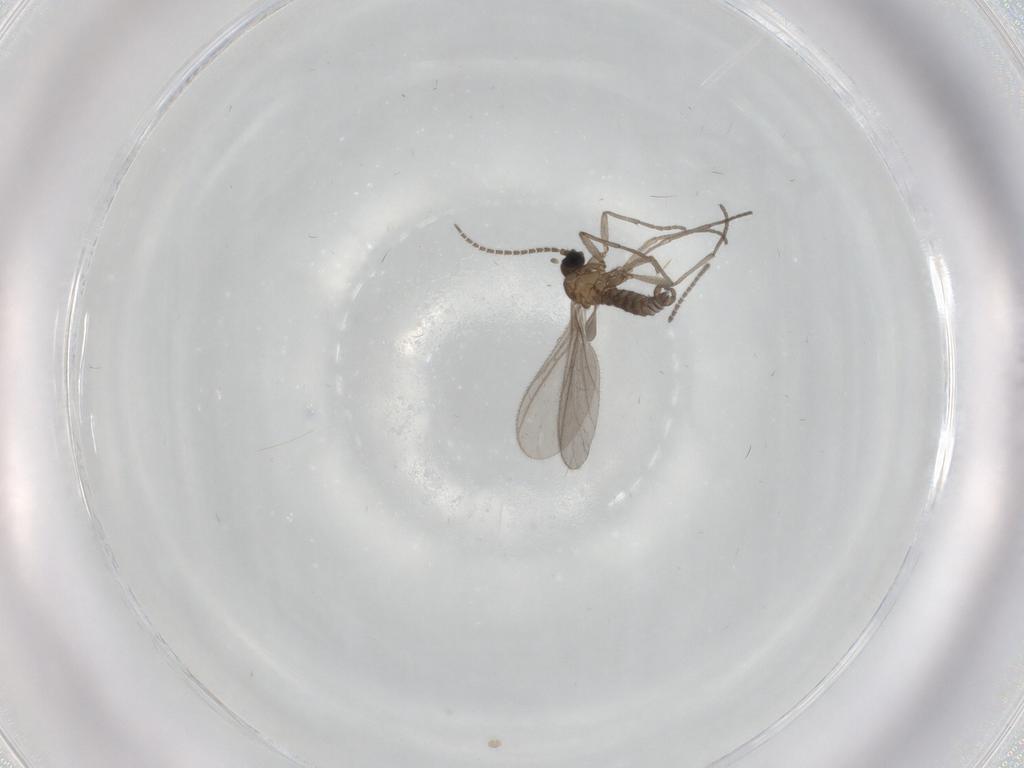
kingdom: Animalia
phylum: Arthropoda
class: Insecta
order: Diptera
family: Sciaridae
